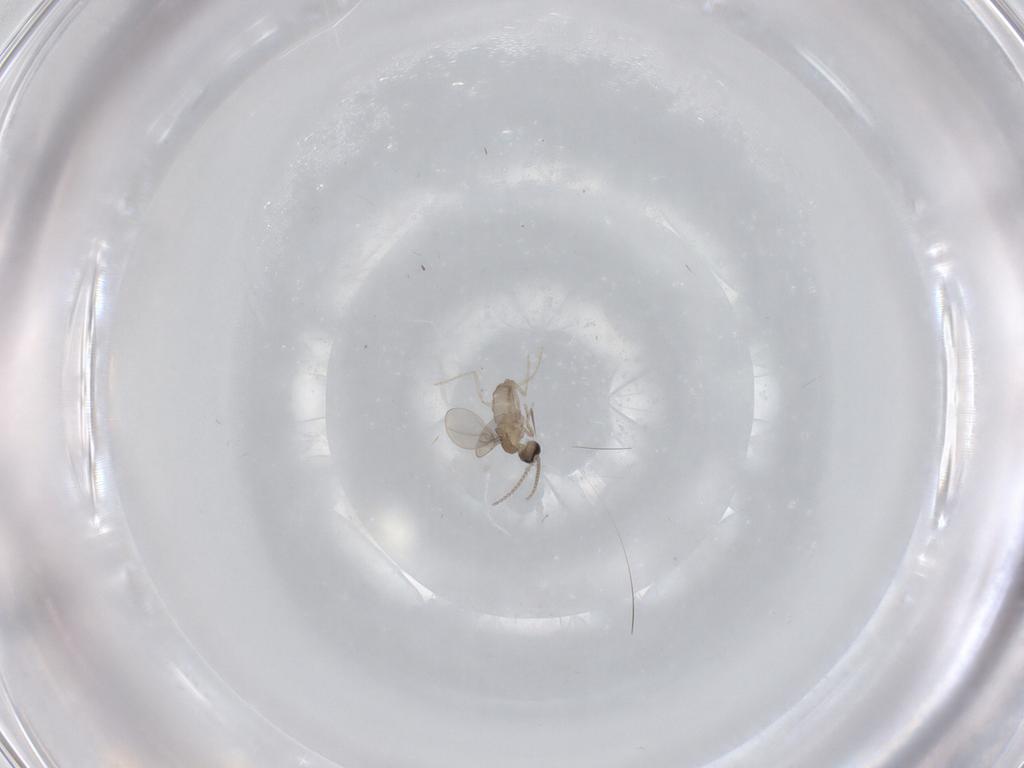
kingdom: Animalia
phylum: Arthropoda
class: Insecta
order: Diptera
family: Cecidomyiidae
